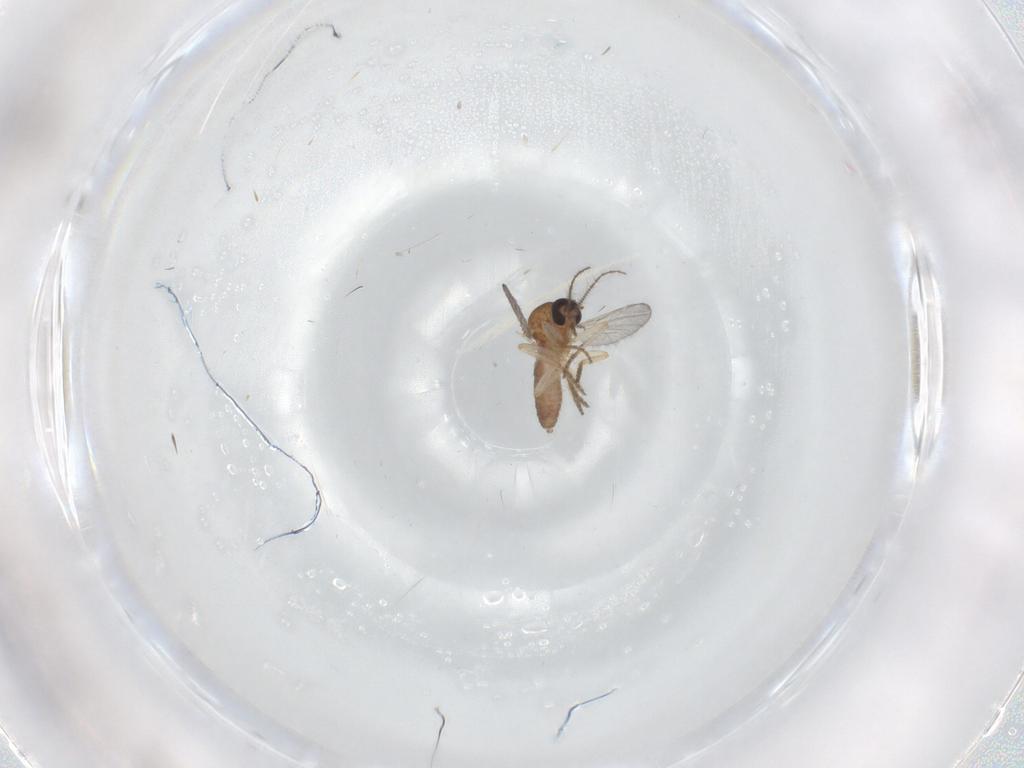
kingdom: Animalia
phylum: Arthropoda
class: Insecta
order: Diptera
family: Ceratopogonidae
